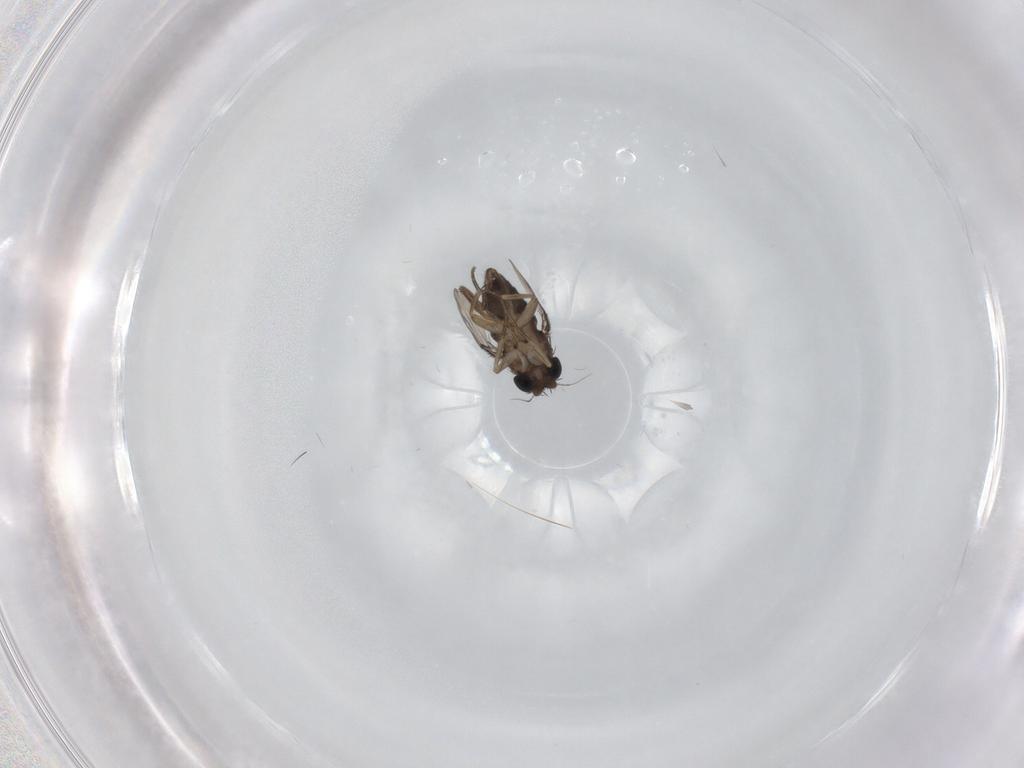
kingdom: Animalia
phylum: Arthropoda
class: Insecta
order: Diptera
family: Phoridae
